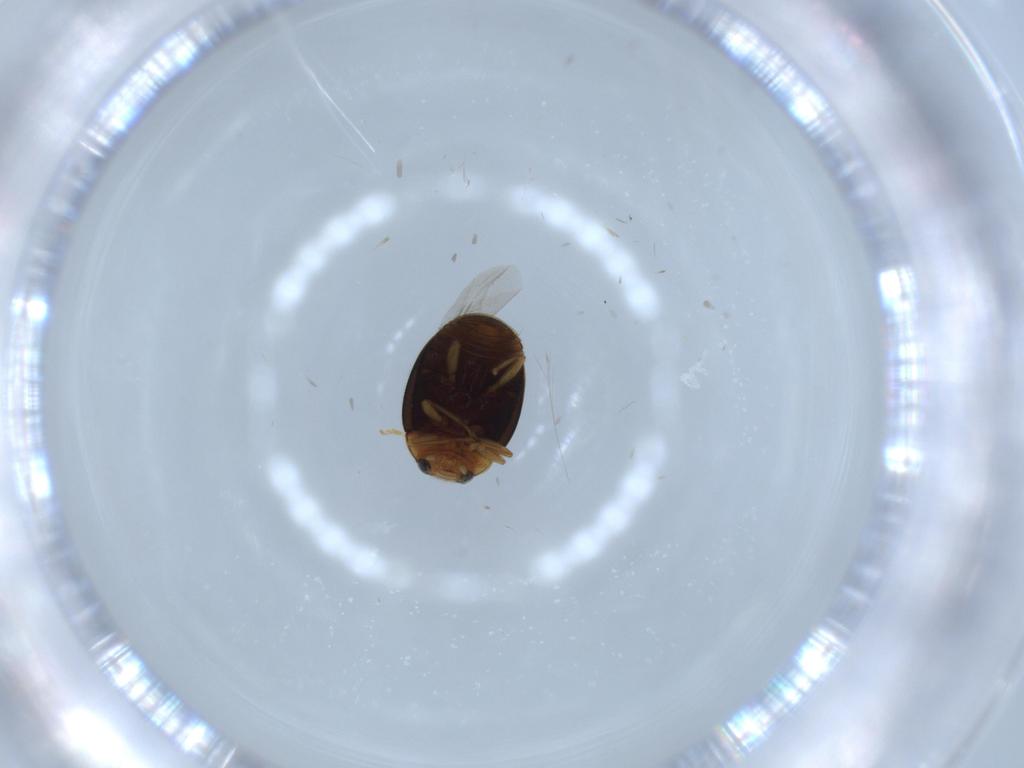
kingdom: Animalia
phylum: Arthropoda
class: Insecta
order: Coleoptera
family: Coccinellidae
